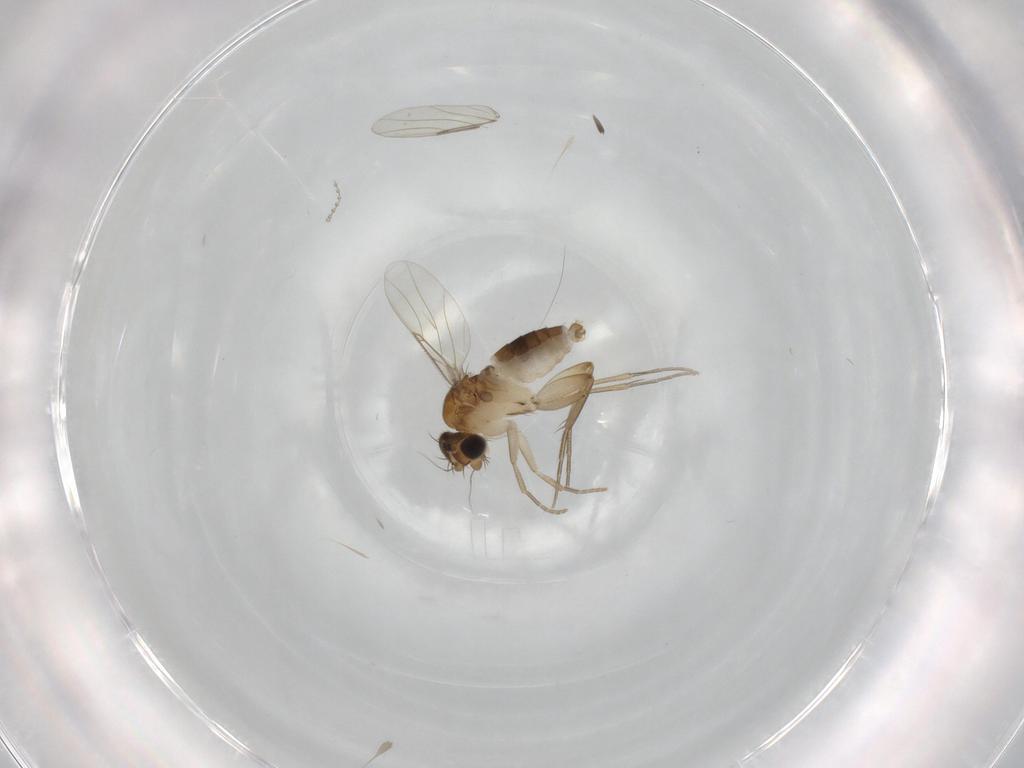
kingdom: Animalia
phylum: Arthropoda
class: Insecta
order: Diptera
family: Phoridae
